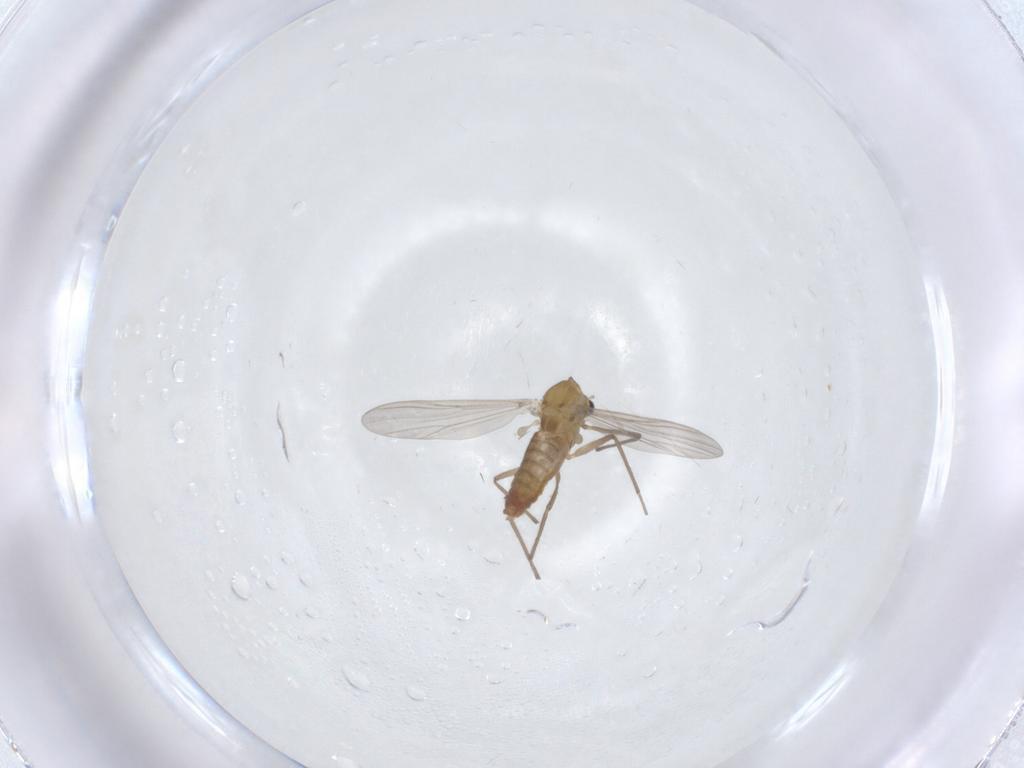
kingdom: Animalia
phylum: Arthropoda
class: Insecta
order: Diptera
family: Chironomidae
